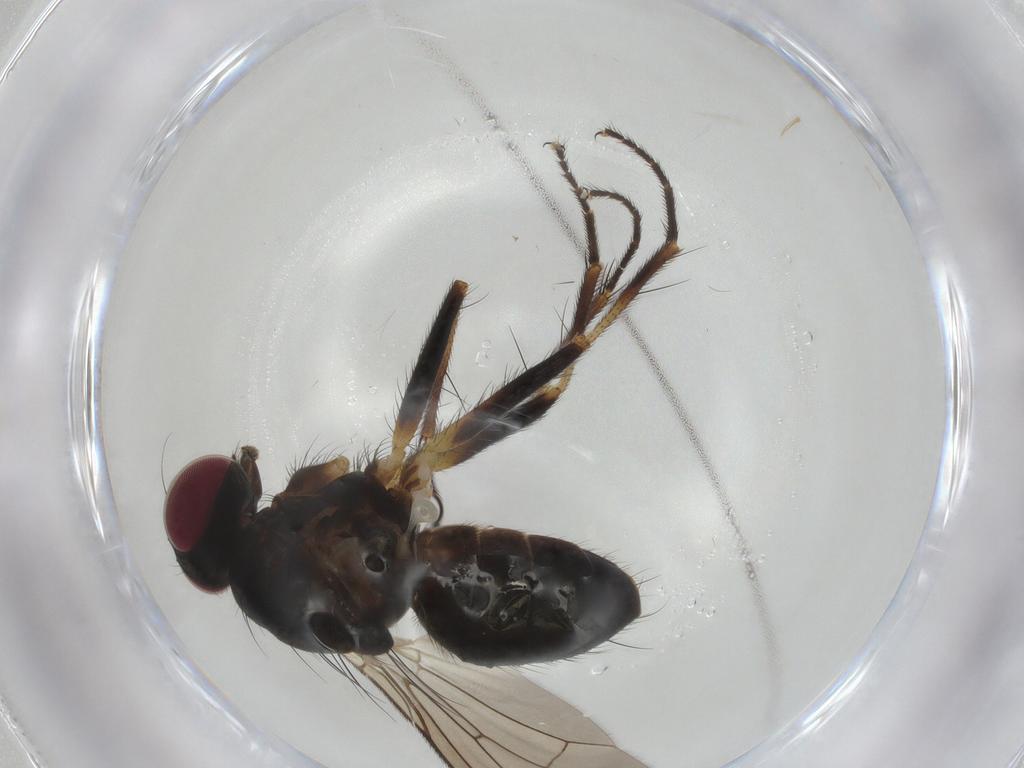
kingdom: Animalia
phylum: Arthropoda
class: Insecta
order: Diptera
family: Anthomyiidae
